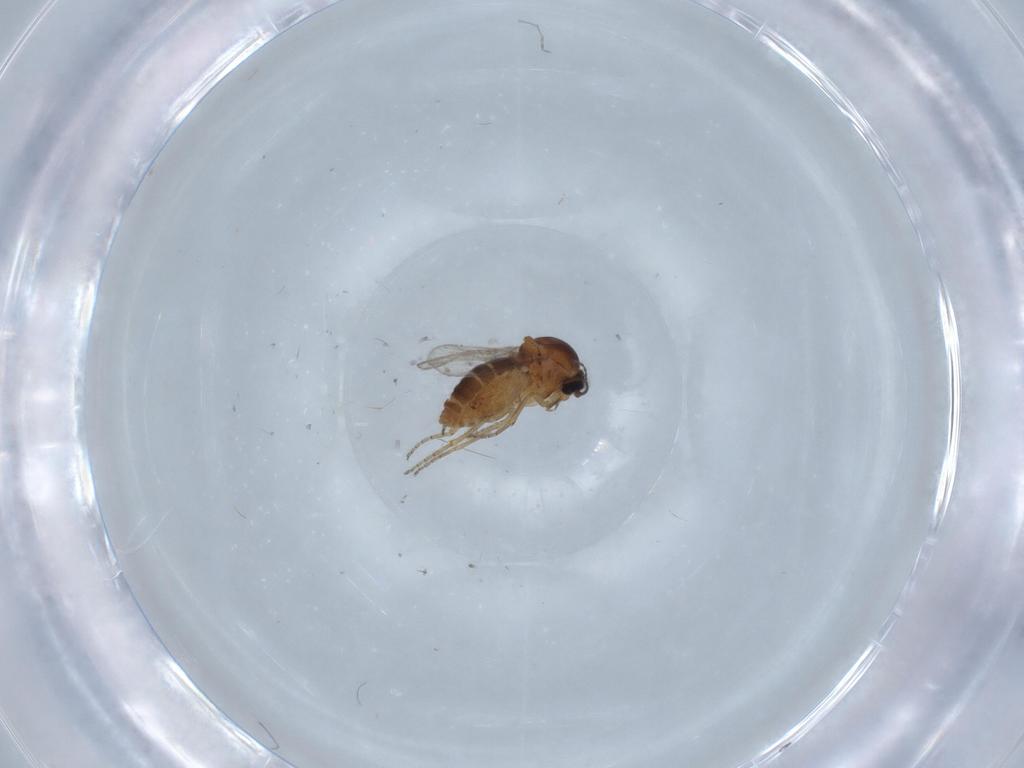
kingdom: Animalia
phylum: Arthropoda
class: Insecta
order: Diptera
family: Ceratopogonidae
